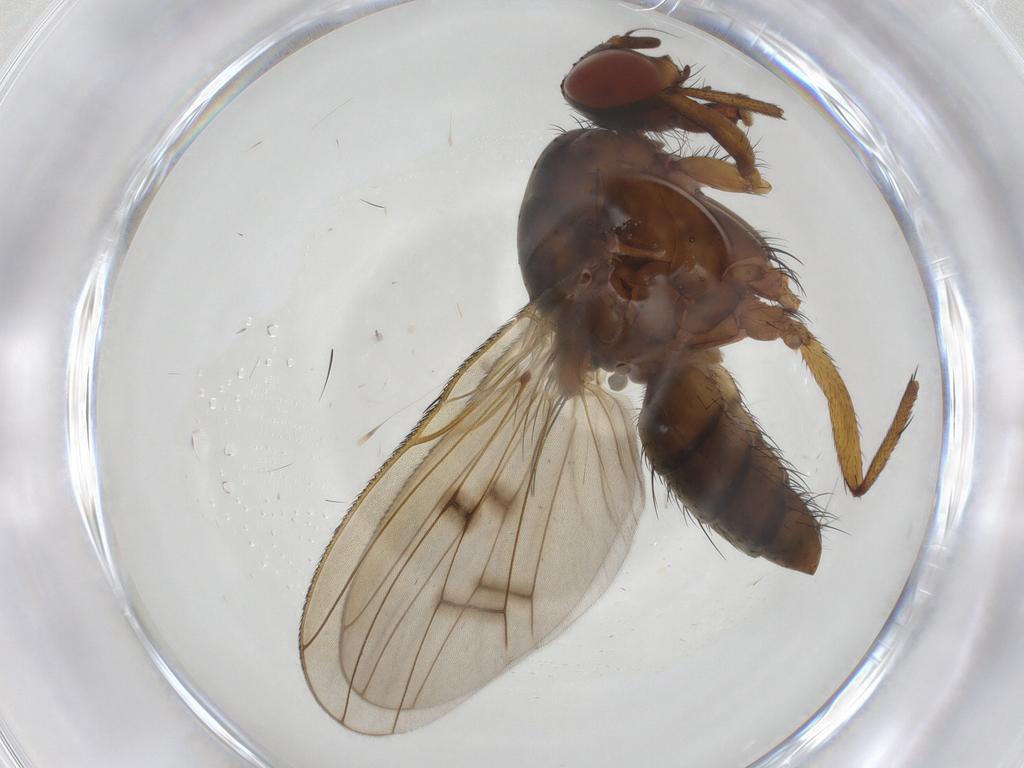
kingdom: Animalia
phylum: Arthropoda
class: Insecta
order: Diptera
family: Anthomyiidae
